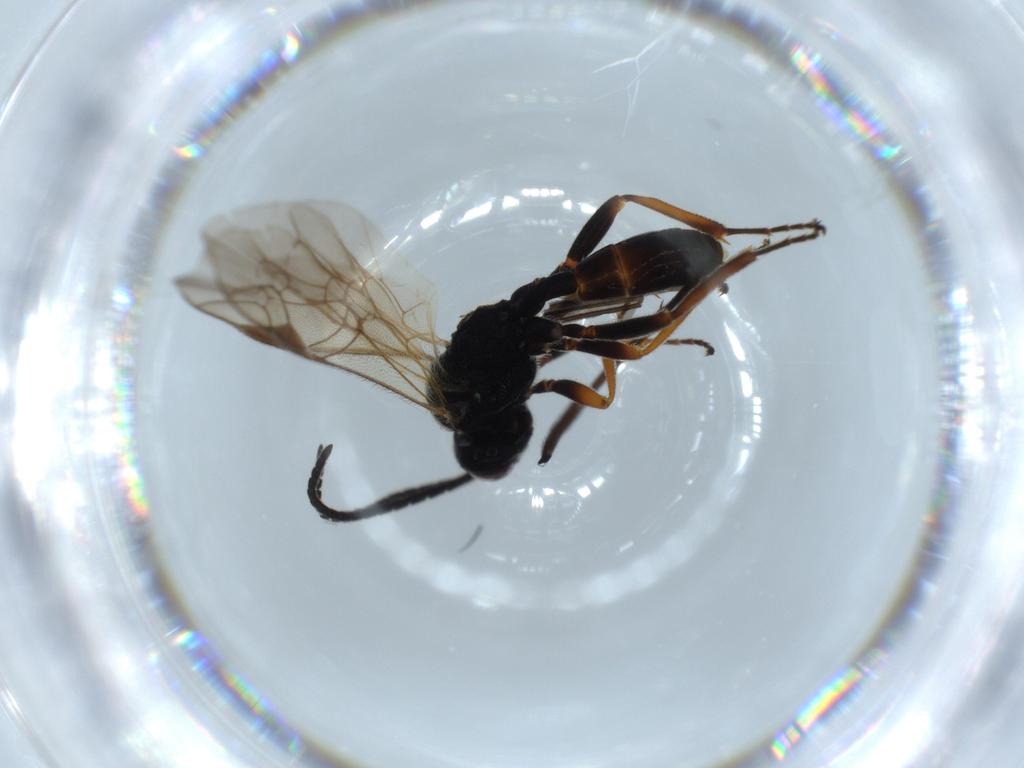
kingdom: Animalia
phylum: Arthropoda
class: Insecta
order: Hymenoptera
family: Ichneumonidae
